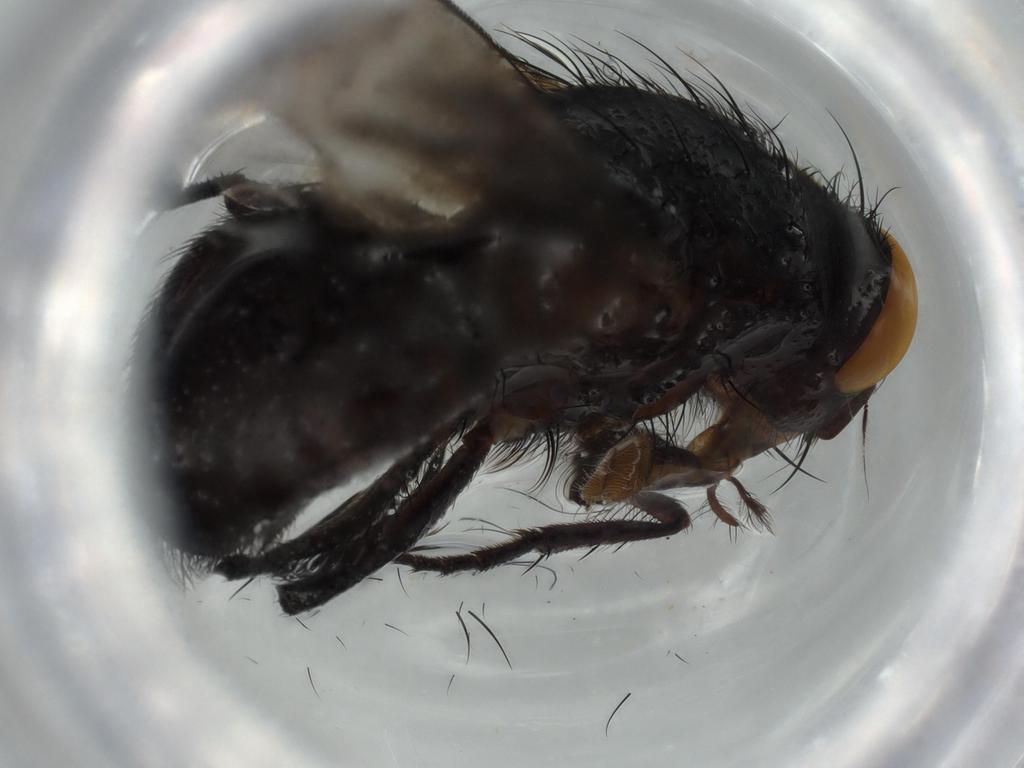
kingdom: Animalia
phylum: Arthropoda
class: Insecta
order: Diptera
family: Sarcophagidae
